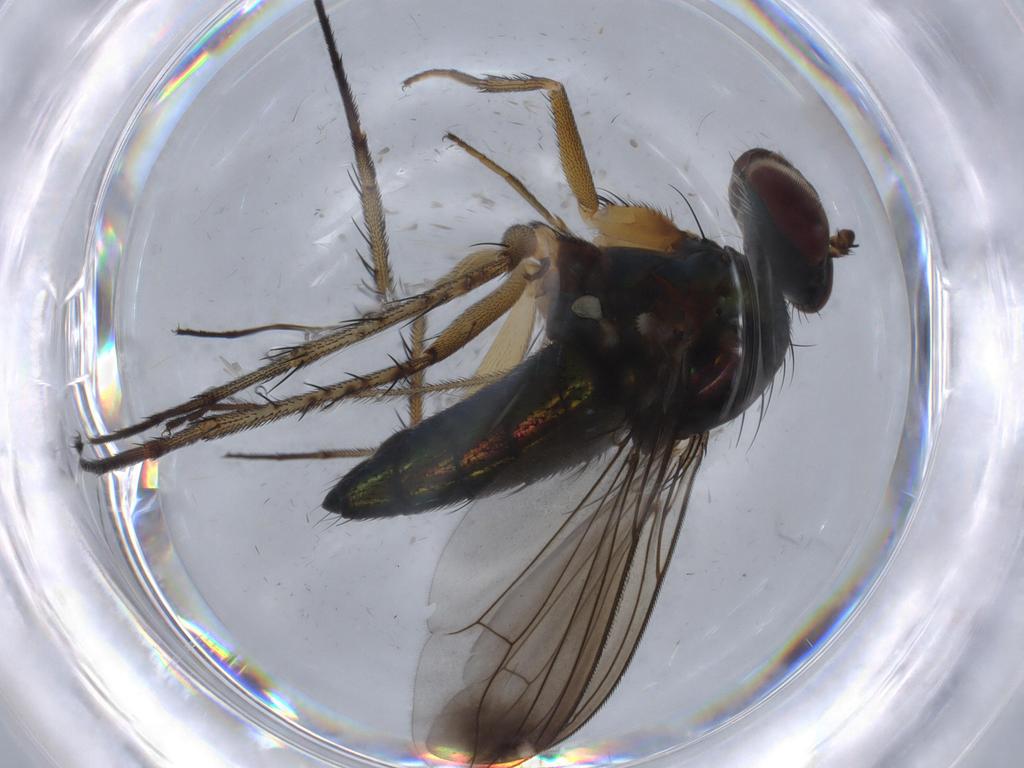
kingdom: Animalia
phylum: Arthropoda
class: Insecta
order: Diptera
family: Dolichopodidae
